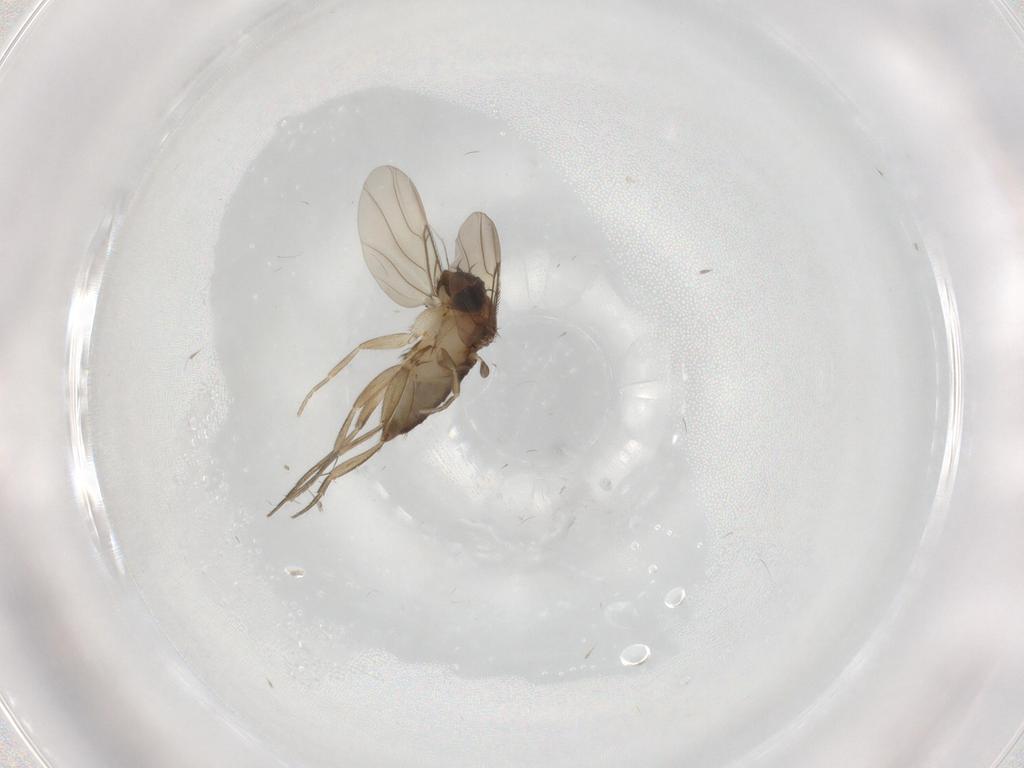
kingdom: Animalia
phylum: Arthropoda
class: Insecta
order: Diptera
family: Phoridae
